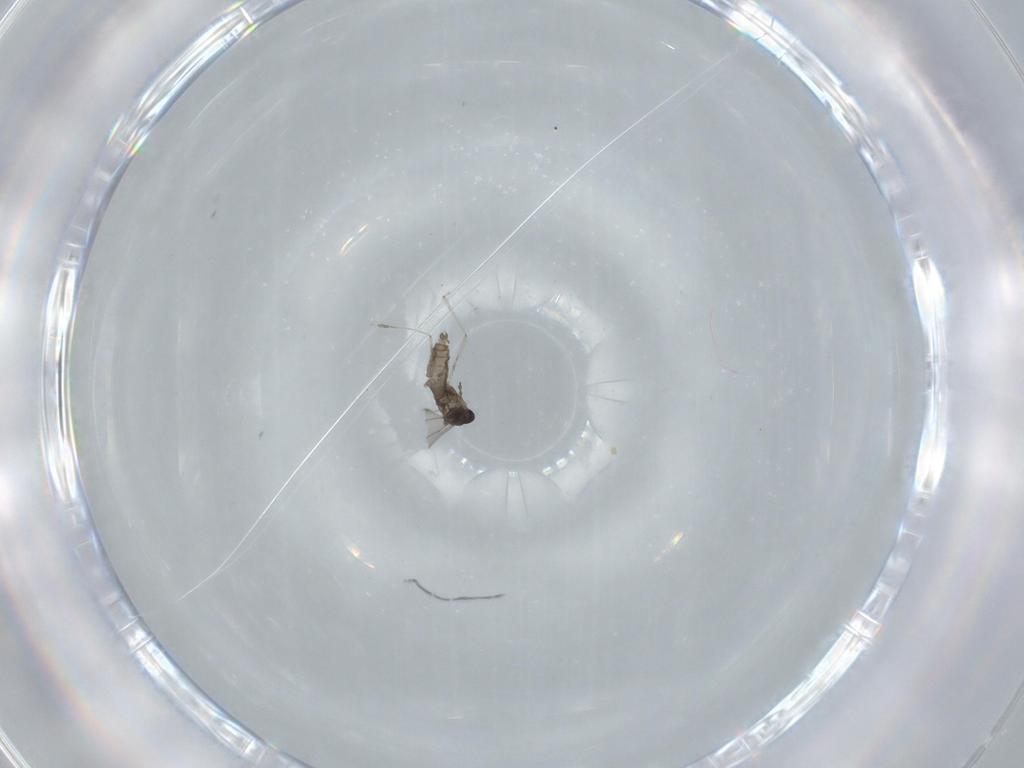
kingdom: Animalia
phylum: Arthropoda
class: Insecta
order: Diptera
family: Cecidomyiidae
